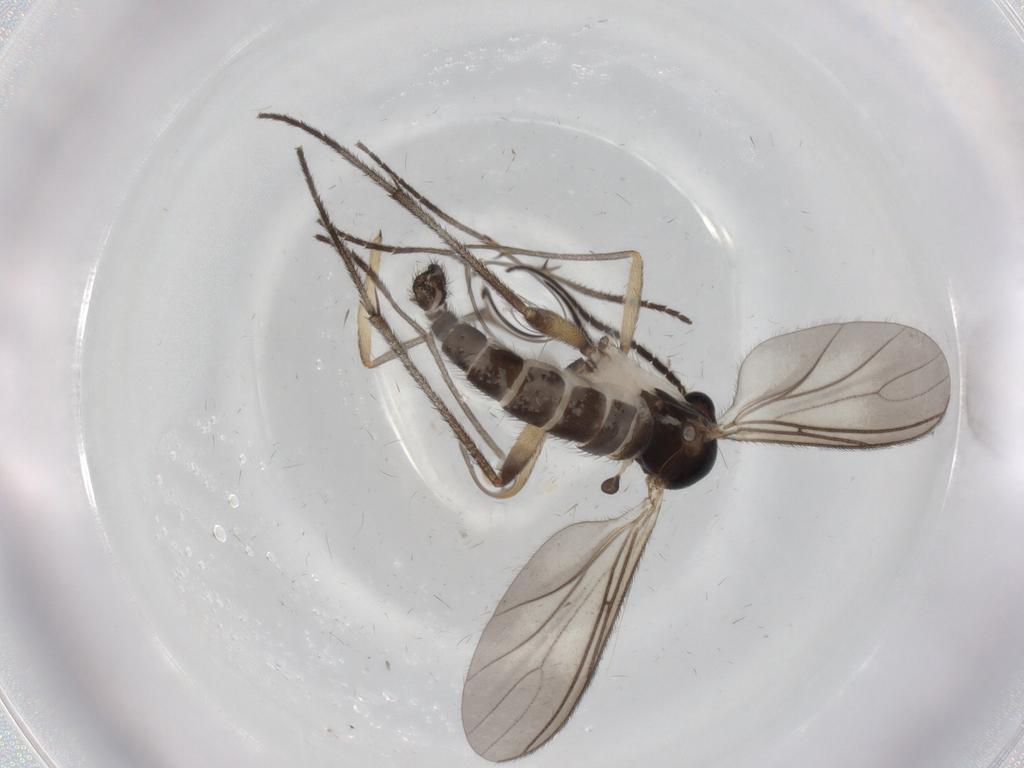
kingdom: Animalia
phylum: Arthropoda
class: Insecta
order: Diptera
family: Sciaridae
